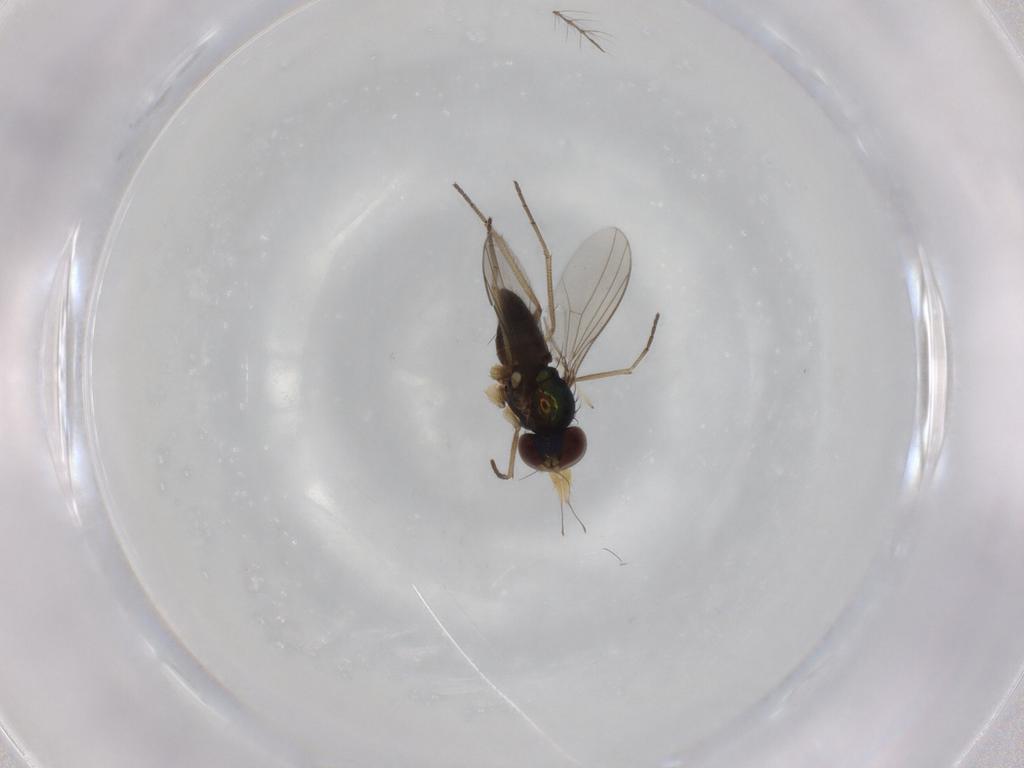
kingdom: Animalia
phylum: Arthropoda
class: Insecta
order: Diptera
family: Dolichopodidae
